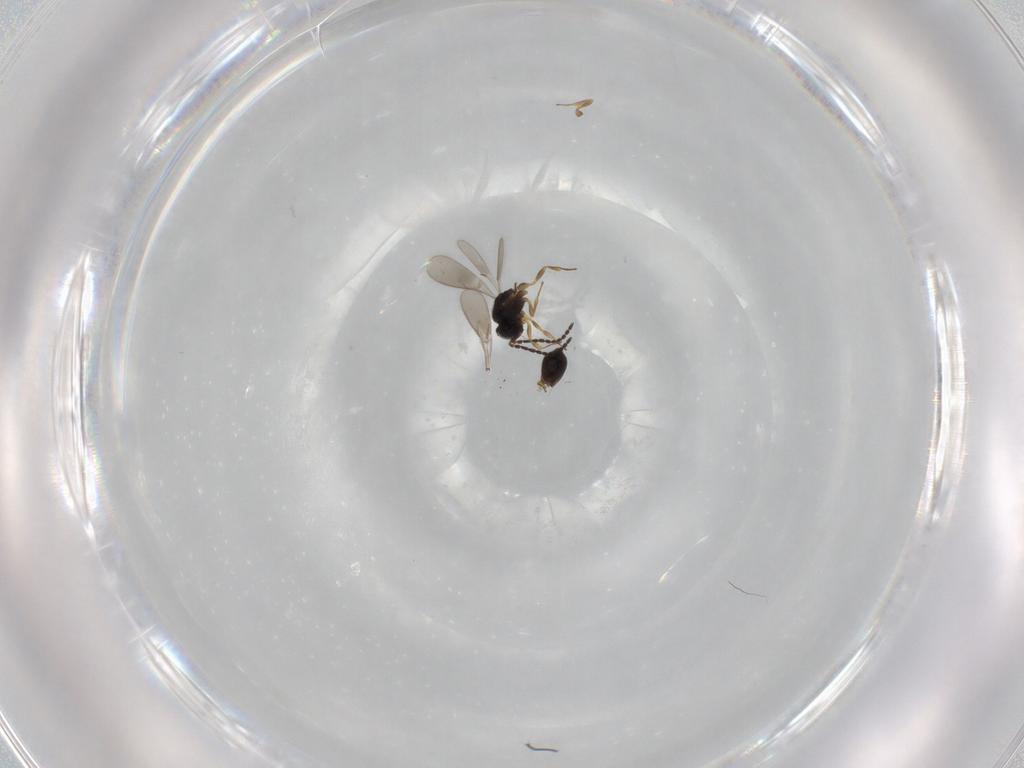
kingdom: Animalia
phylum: Arthropoda
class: Insecta
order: Hymenoptera
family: Scelionidae
